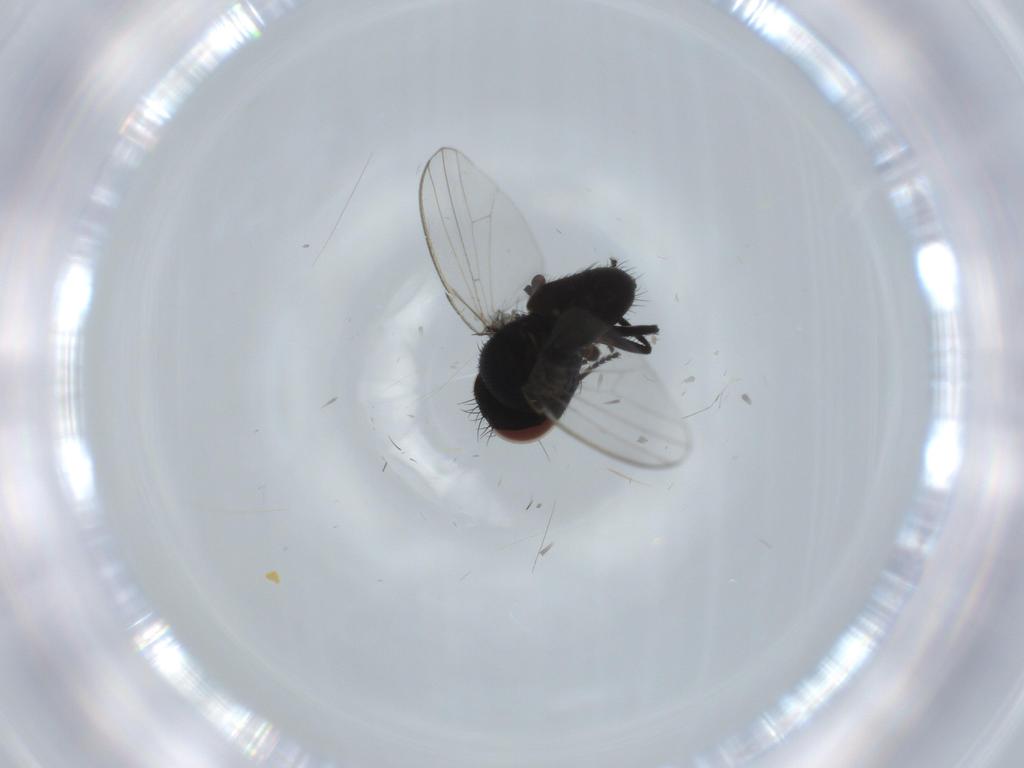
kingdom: Animalia
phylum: Arthropoda
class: Insecta
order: Diptera
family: Milichiidae
